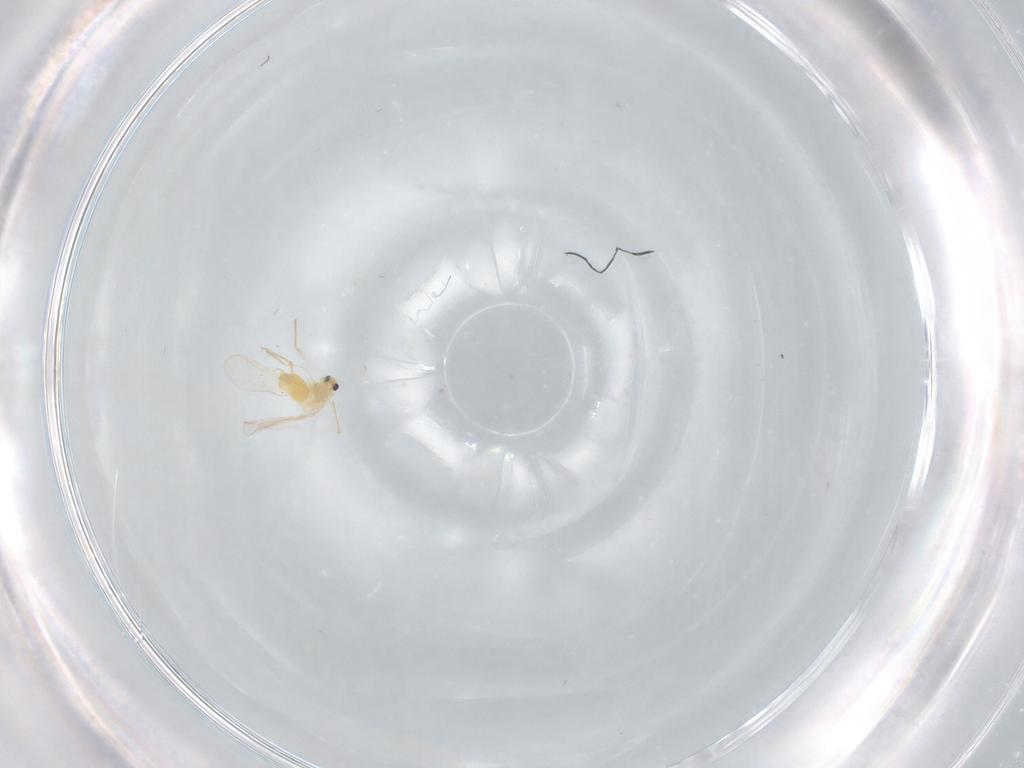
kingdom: Animalia
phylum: Arthropoda
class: Insecta
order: Diptera
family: Chironomidae
